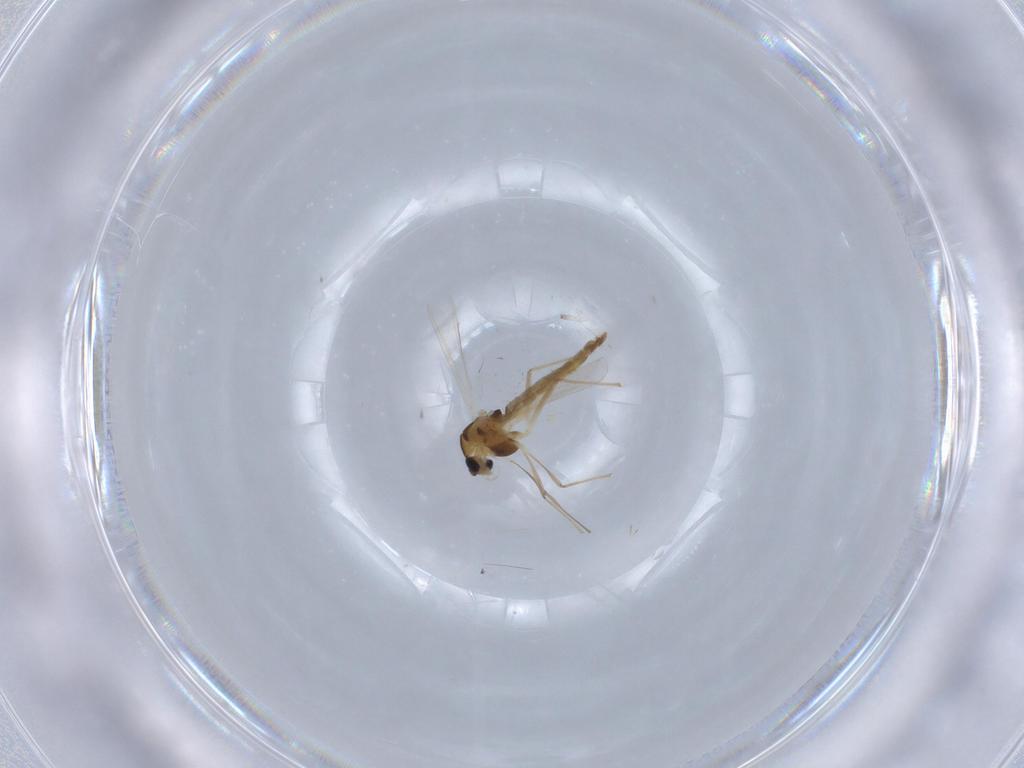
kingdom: Animalia
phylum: Arthropoda
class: Insecta
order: Diptera
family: Chironomidae
